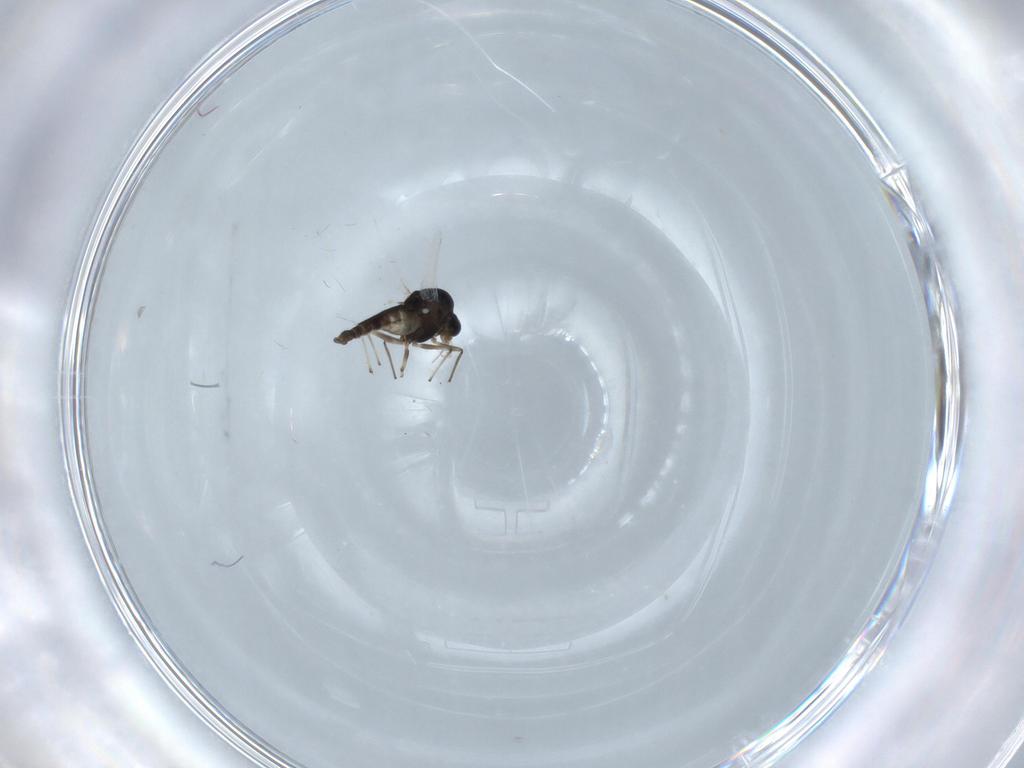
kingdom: Animalia
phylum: Arthropoda
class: Insecta
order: Diptera
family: Chironomidae
